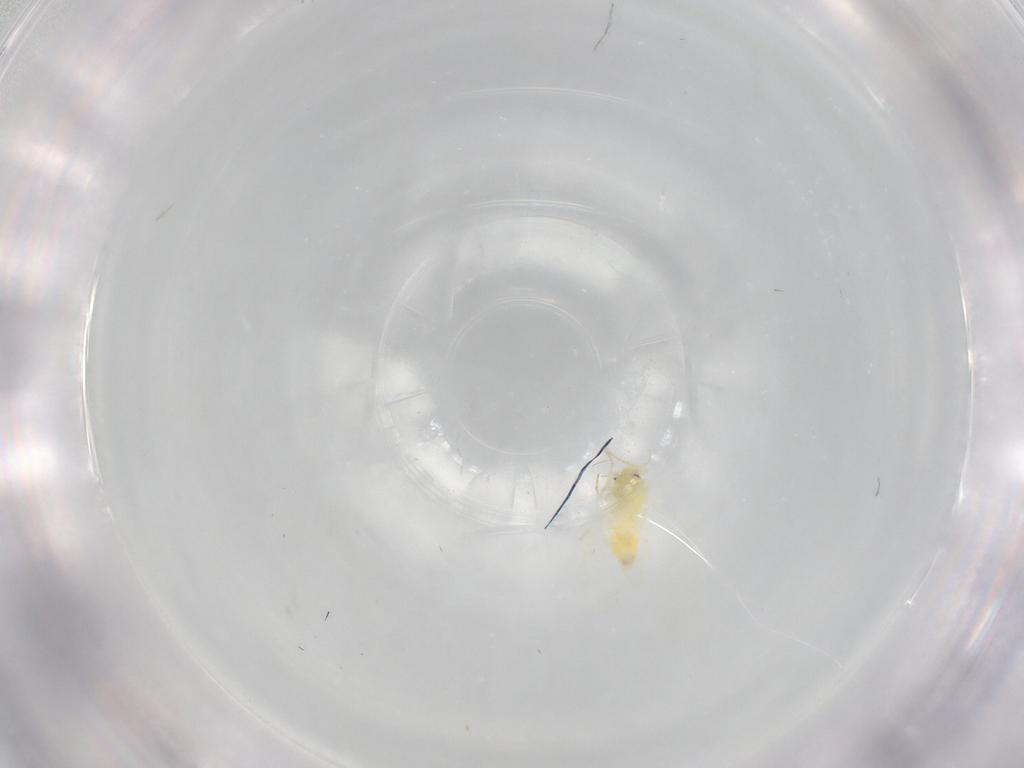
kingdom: Animalia
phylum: Arthropoda
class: Insecta
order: Hemiptera
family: Aleyrodidae
